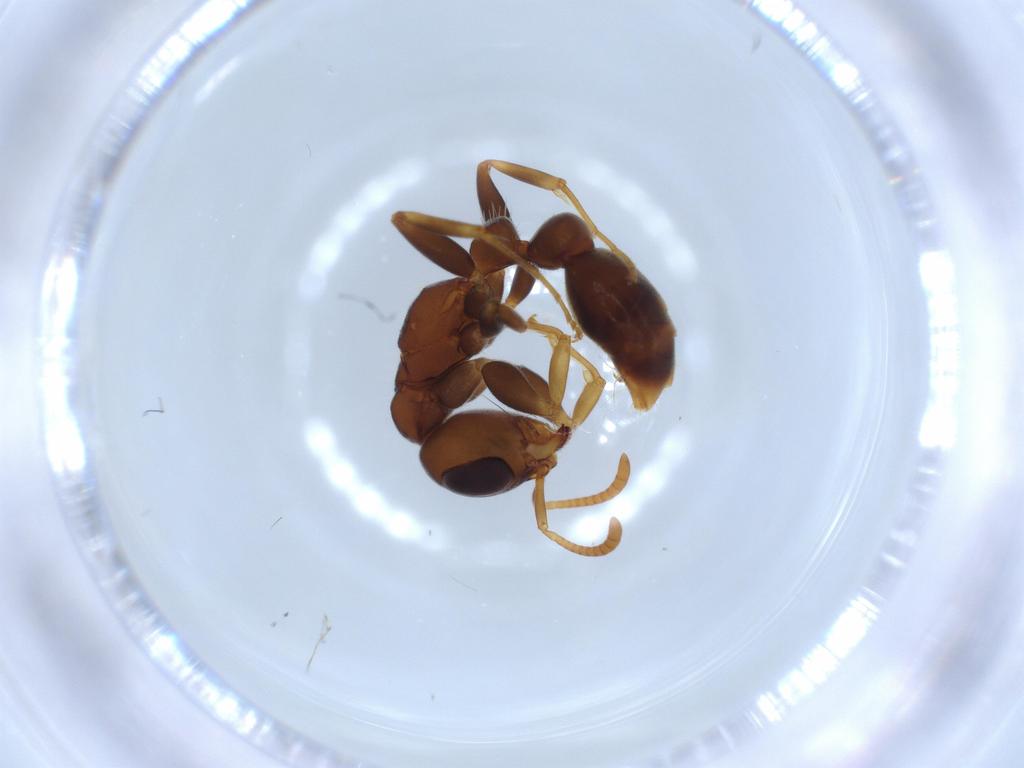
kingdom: Animalia
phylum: Arthropoda
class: Insecta
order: Hymenoptera
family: Formicidae
